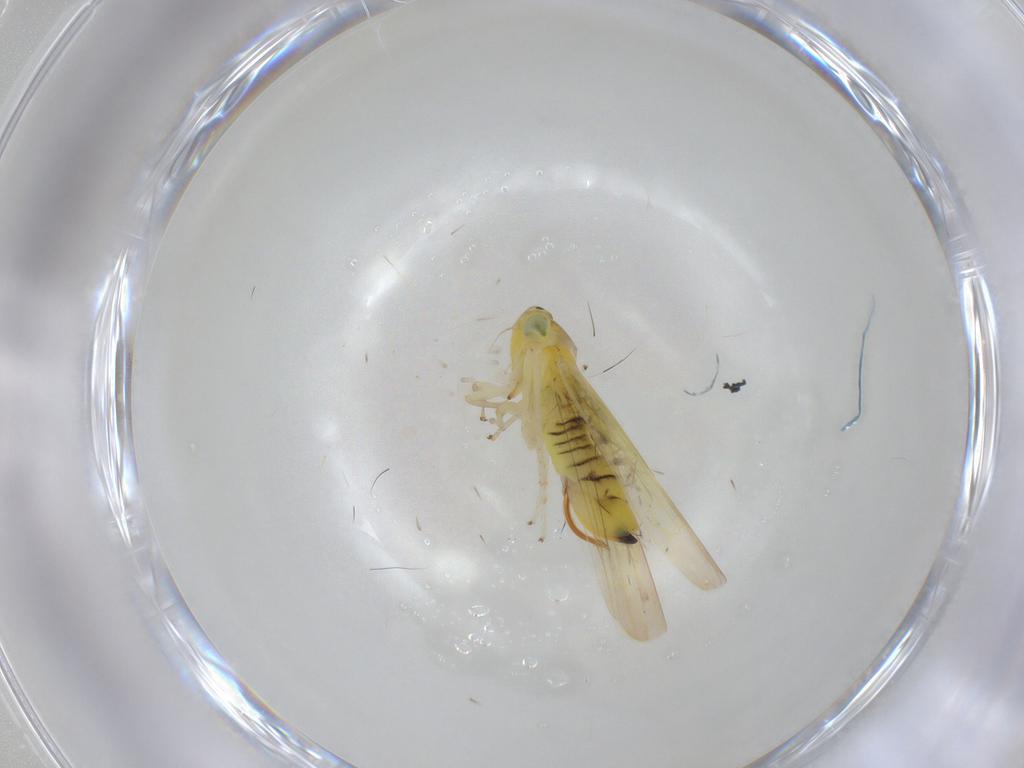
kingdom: Animalia
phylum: Arthropoda
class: Insecta
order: Hemiptera
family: Cicadellidae
